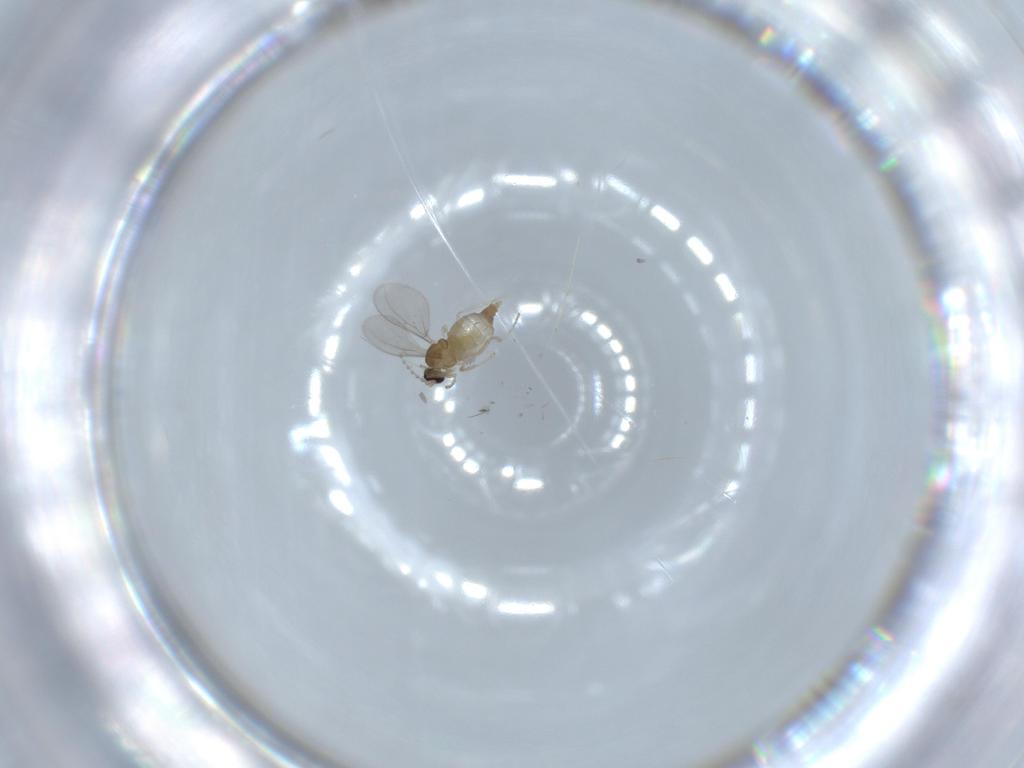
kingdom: Animalia
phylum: Arthropoda
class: Insecta
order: Diptera
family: Cecidomyiidae
